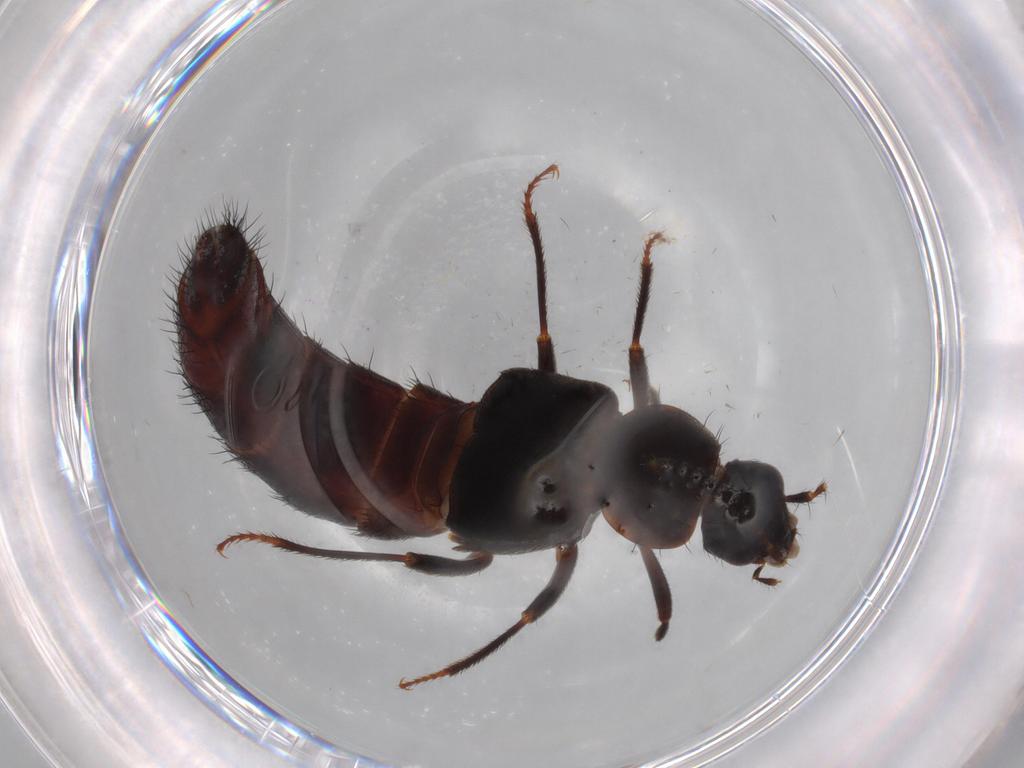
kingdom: Animalia
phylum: Arthropoda
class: Insecta
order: Coleoptera
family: Staphylinidae
